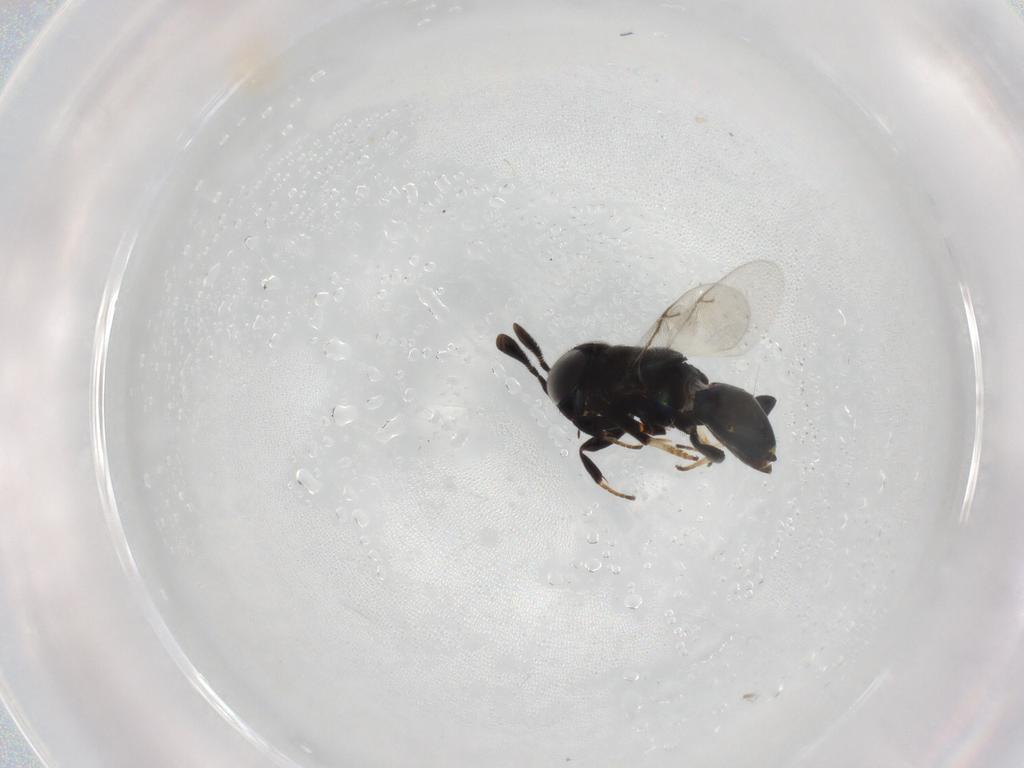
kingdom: Animalia
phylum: Arthropoda
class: Insecta
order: Hymenoptera
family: Encyrtidae
